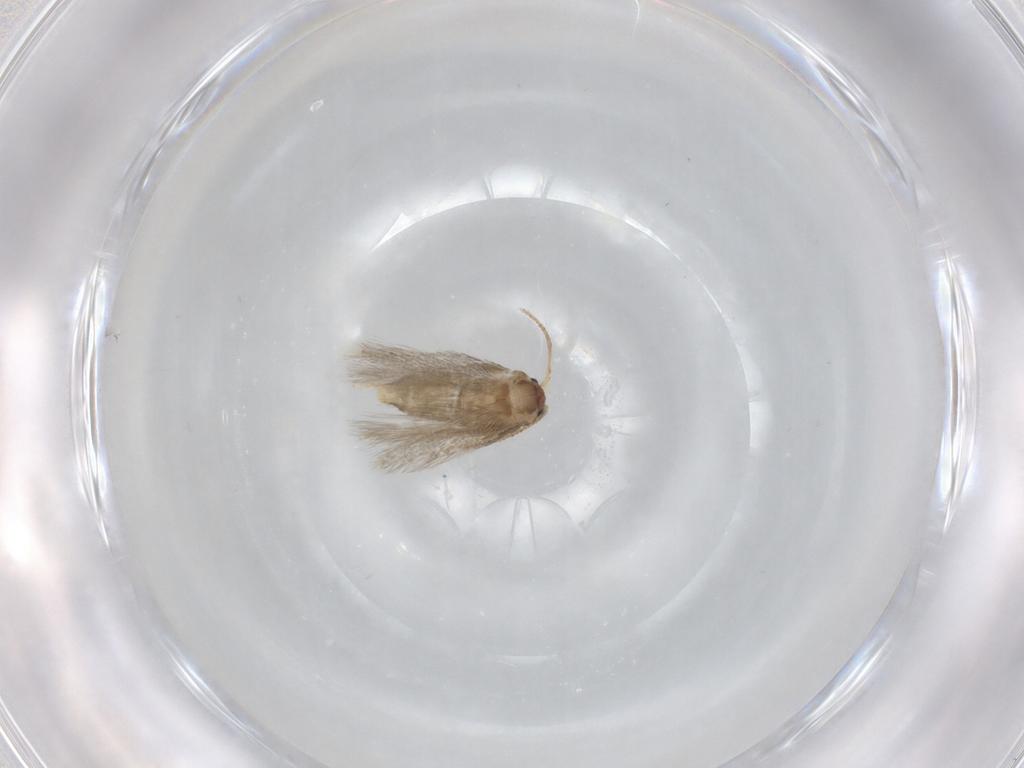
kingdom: Animalia
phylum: Arthropoda
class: Insecta
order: Lepidoptera
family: Nepticulidae
